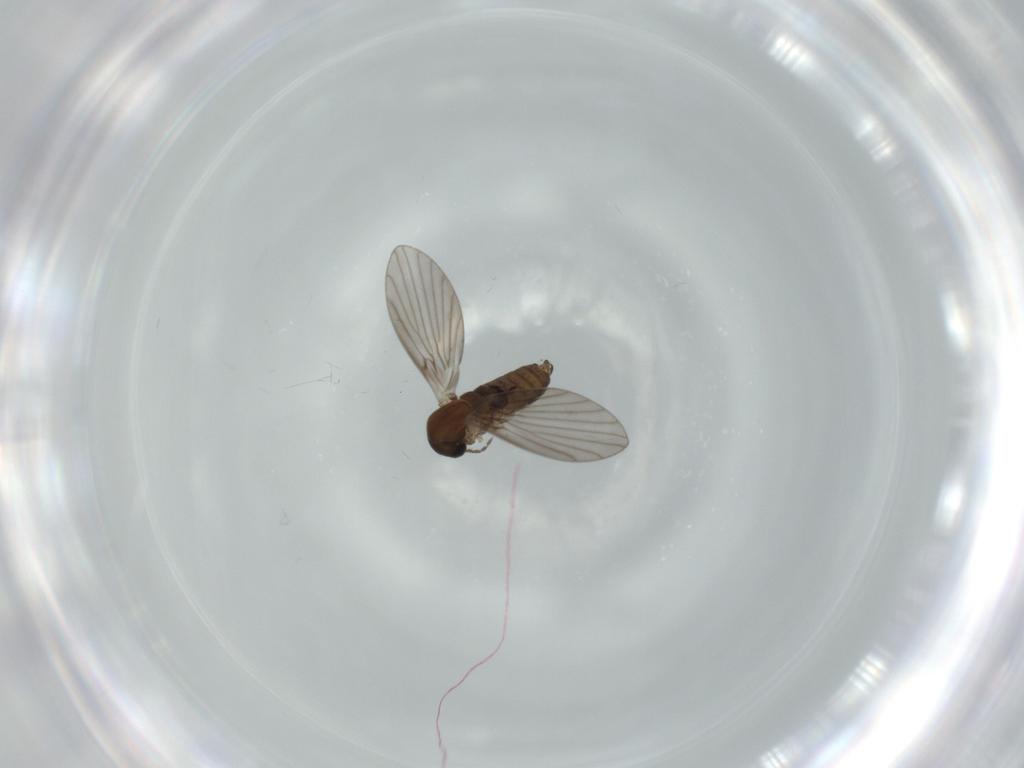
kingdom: Animalia
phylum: Arthropoda
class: Insecta
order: Diptera
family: Psychodidae
